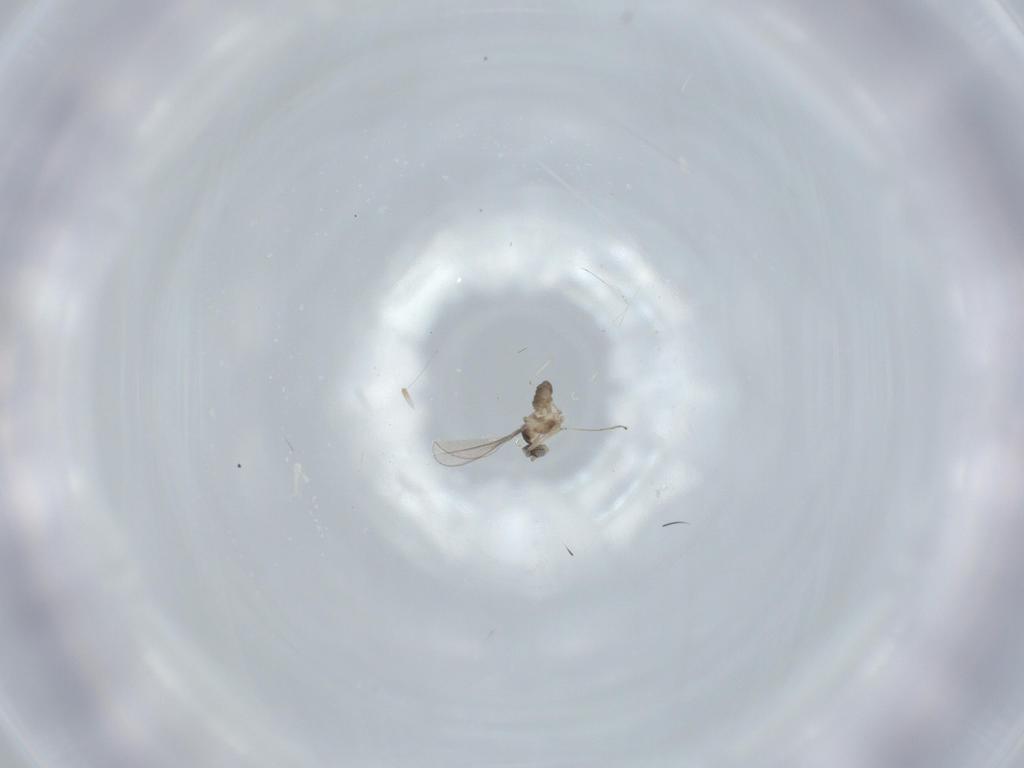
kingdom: Animalia
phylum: Arthropoda
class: Insecta
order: Diptera
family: Cecidomyiidae
